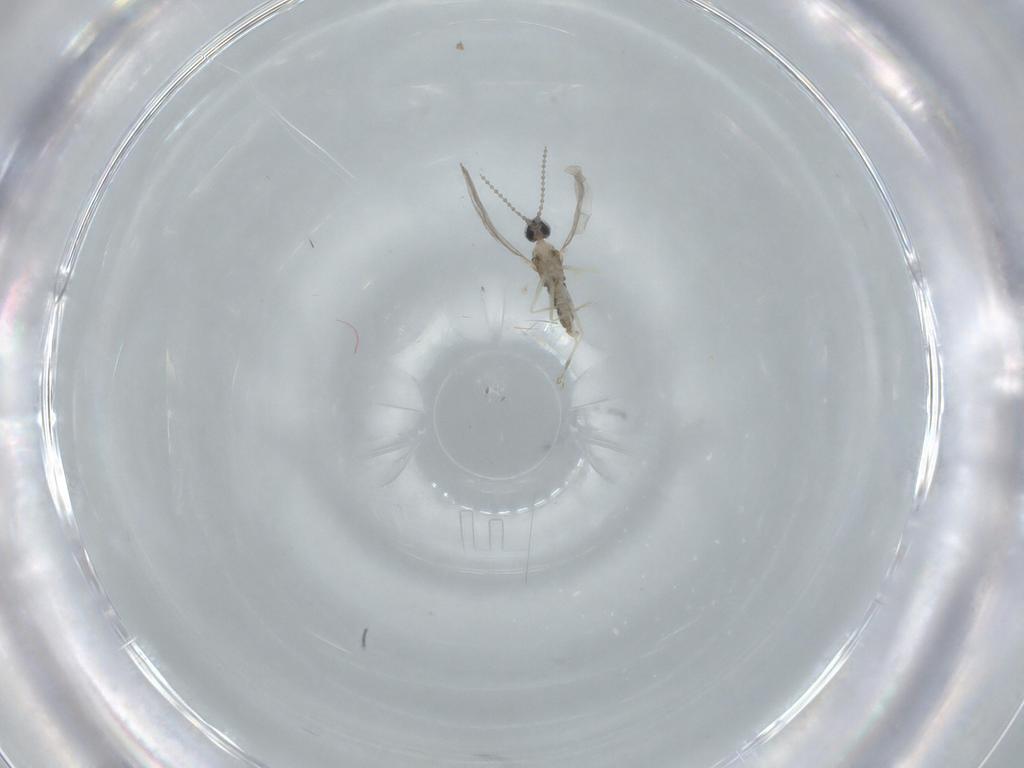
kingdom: Animalia
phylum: Arthropoda
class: Insecta
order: Diptera
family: Cecidomyiidae
